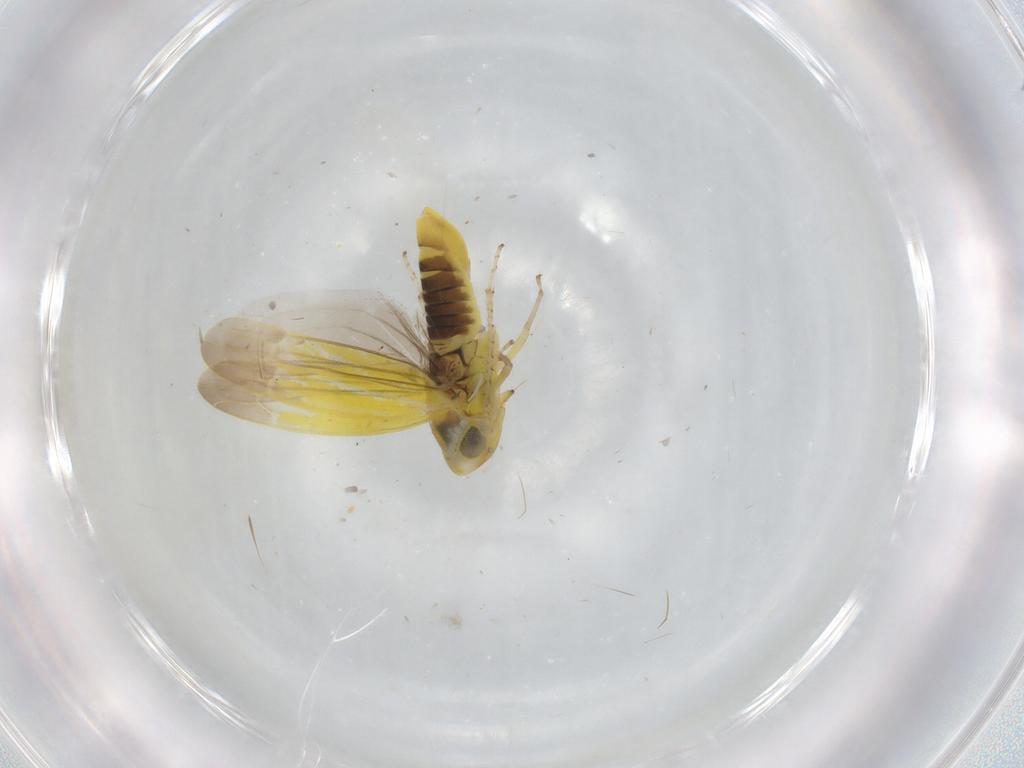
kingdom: Animalia
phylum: Arthropoda
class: Insecta
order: Hemiptera
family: Cicadellidae
